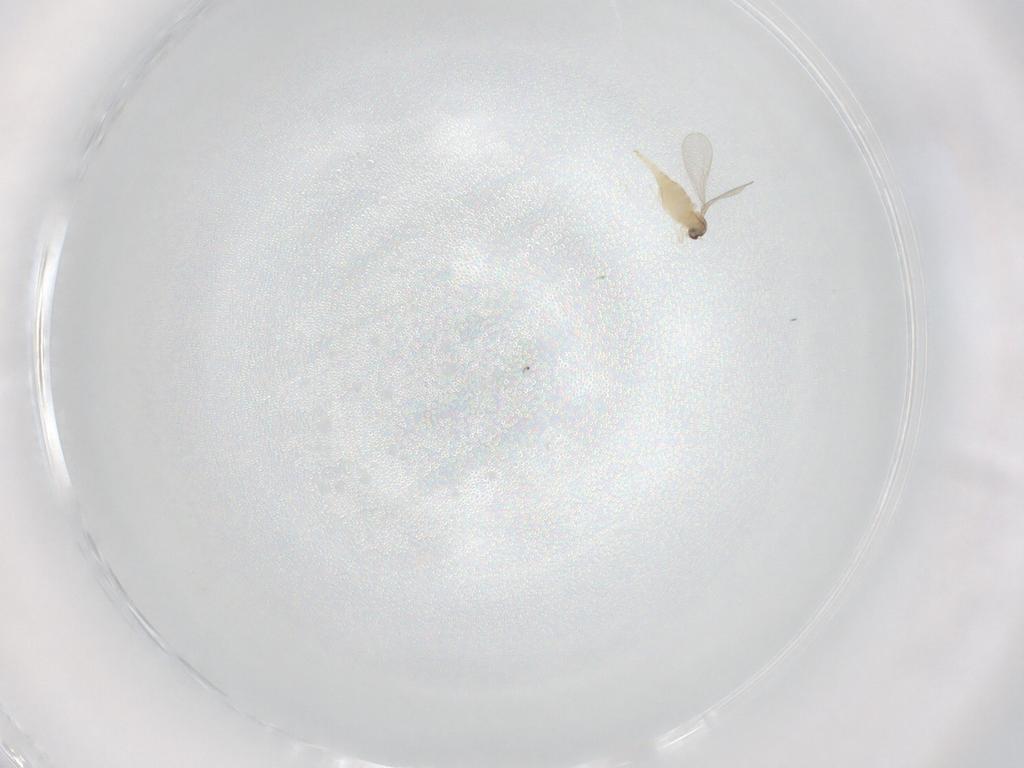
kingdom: Animalia
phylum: Arthropoda
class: Insecta
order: Diptera
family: Cecidomyiidae
